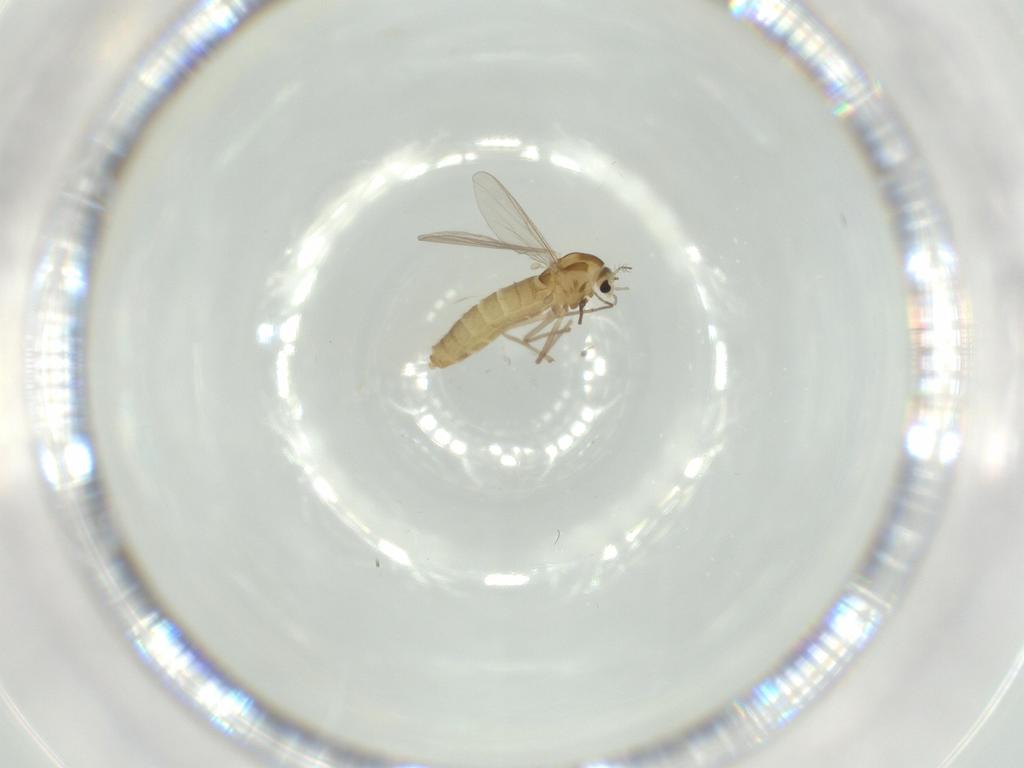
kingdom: Animalia
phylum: Arthropoda
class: Insecta
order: Diptera
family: Chironomidae
